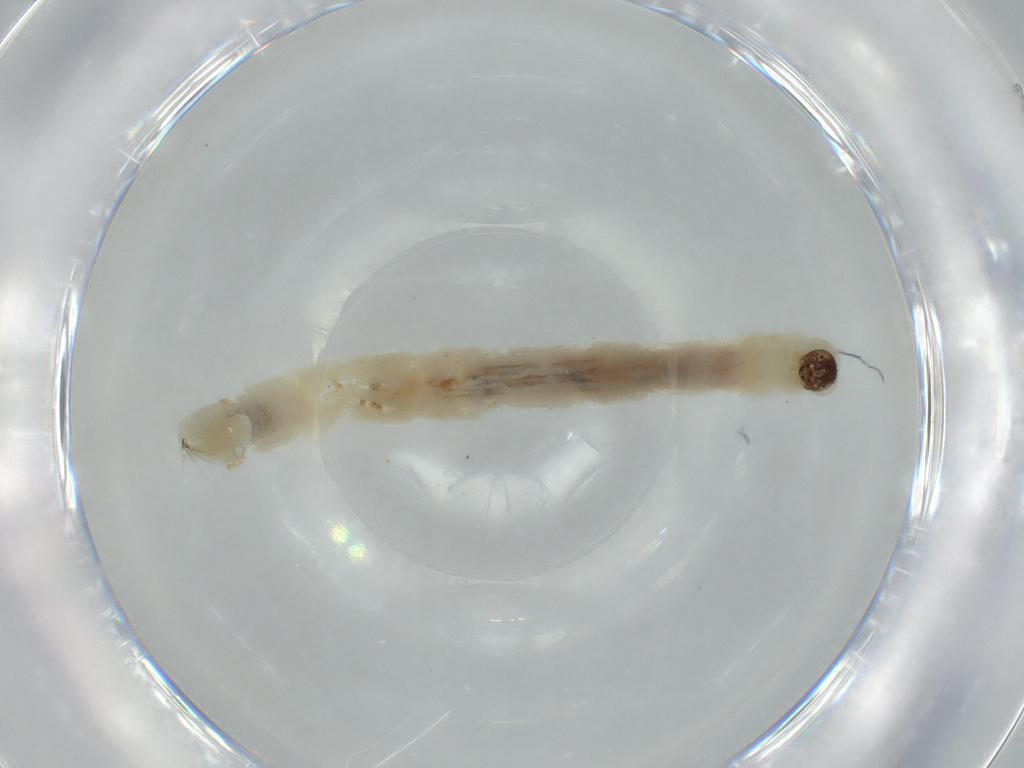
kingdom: Animalia
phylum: Arthropoda
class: Insecta
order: Diptera
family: Chironomidae
